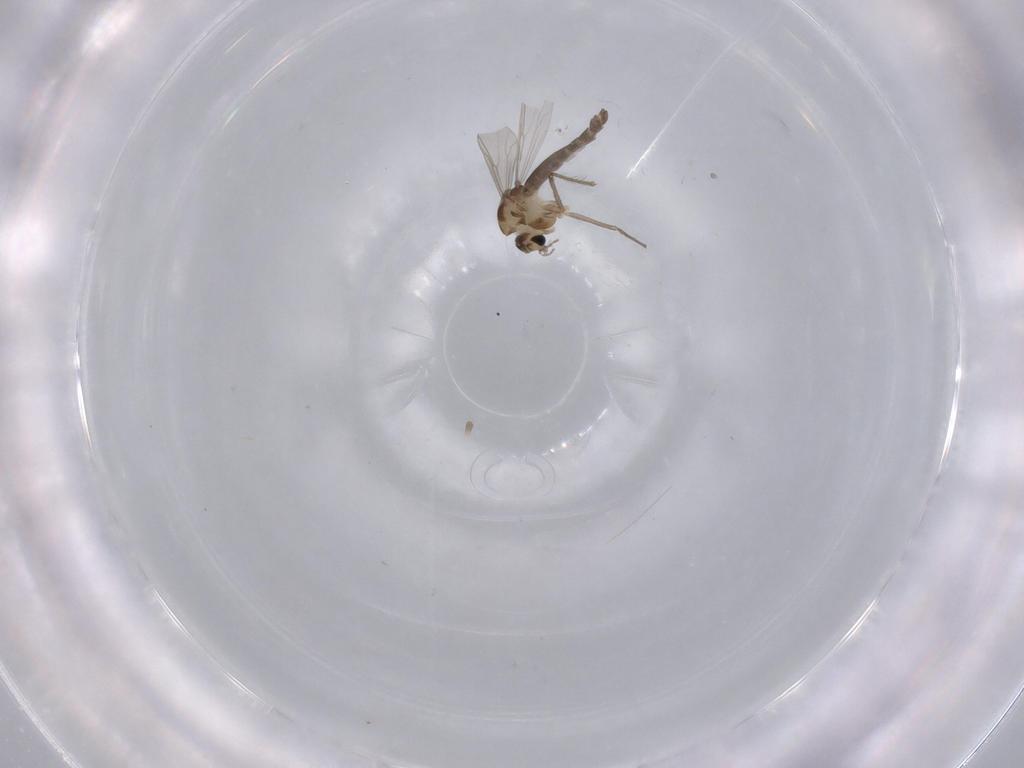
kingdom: Animalia
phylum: Arthropoda
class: Insecta
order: Diptera
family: Chironomidae
